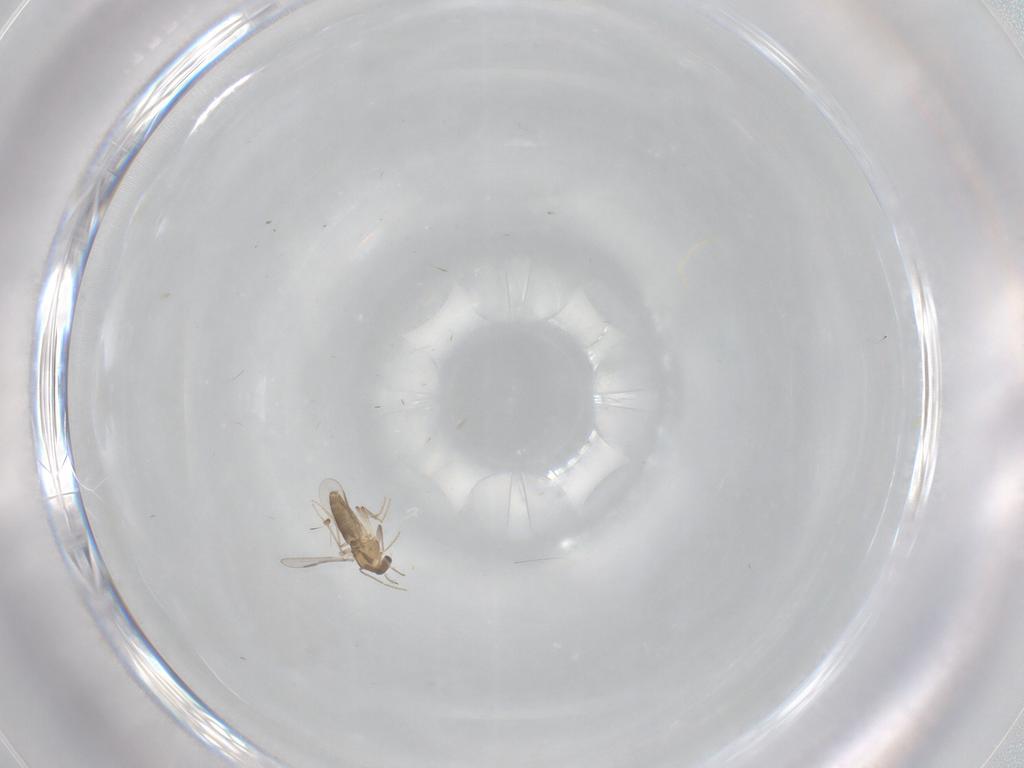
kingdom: Animalia
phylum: Arthropoda
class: Insecta
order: Diptera
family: Chironomidae
